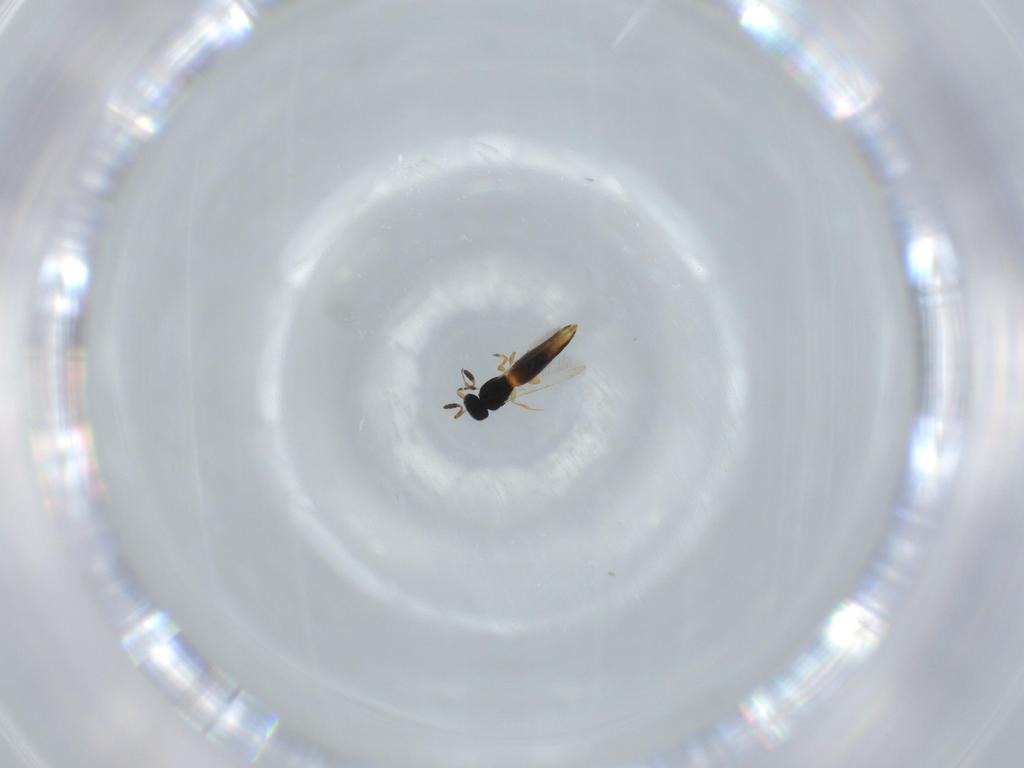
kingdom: Animalia
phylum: Arthropoda
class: Insecta
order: Hymenoptera
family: Scelionidae
